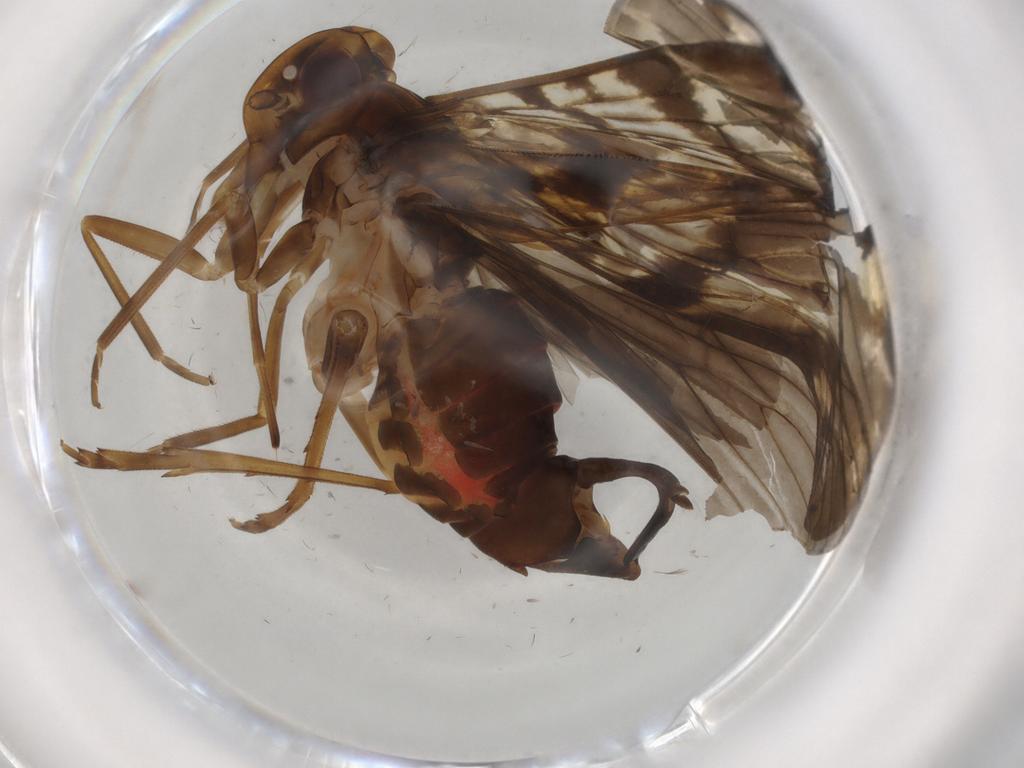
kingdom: Animalia
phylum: Arthropoda
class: Insecta
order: Hemiptera
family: Cixiidae
